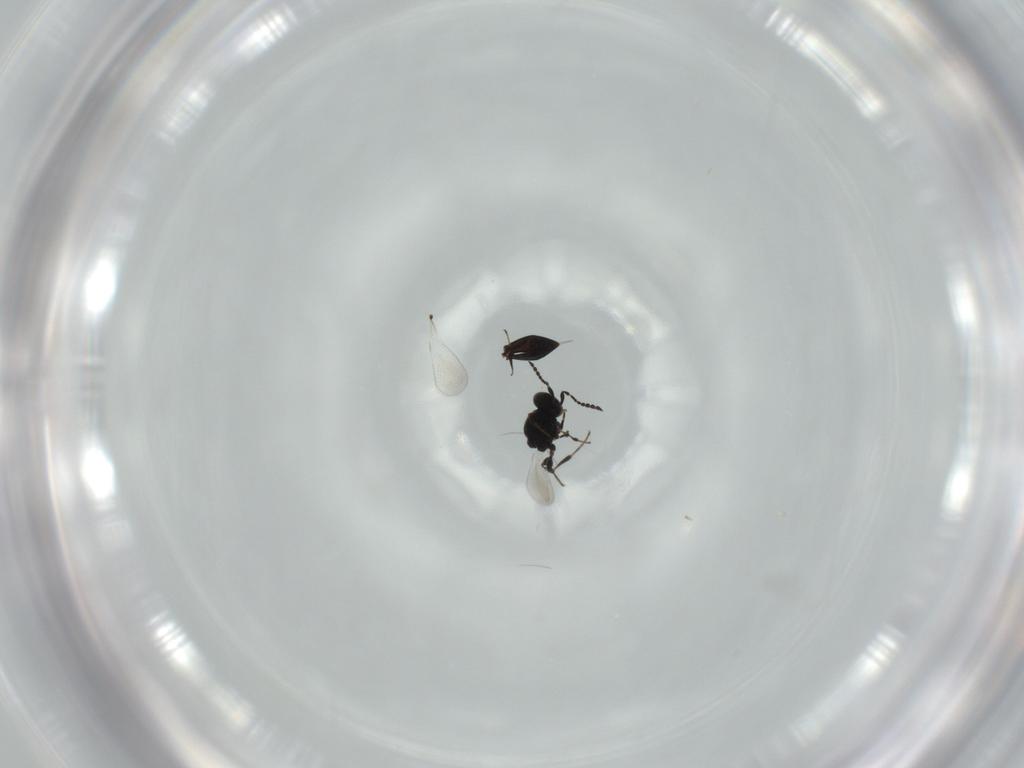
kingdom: Animalia
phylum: Arthropoda
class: Insecta
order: Hymenoptera
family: Platygastridae
